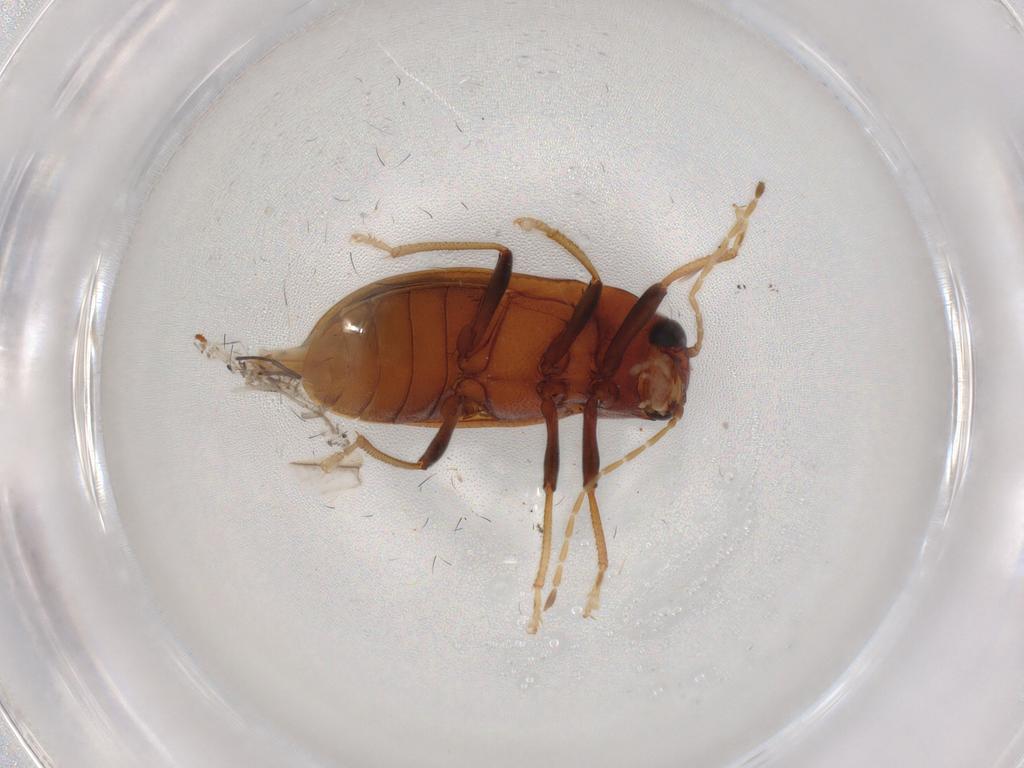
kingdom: Animalia
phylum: Arthropoda
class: Insecta
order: Coleoptera
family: Ptilodactylidae
